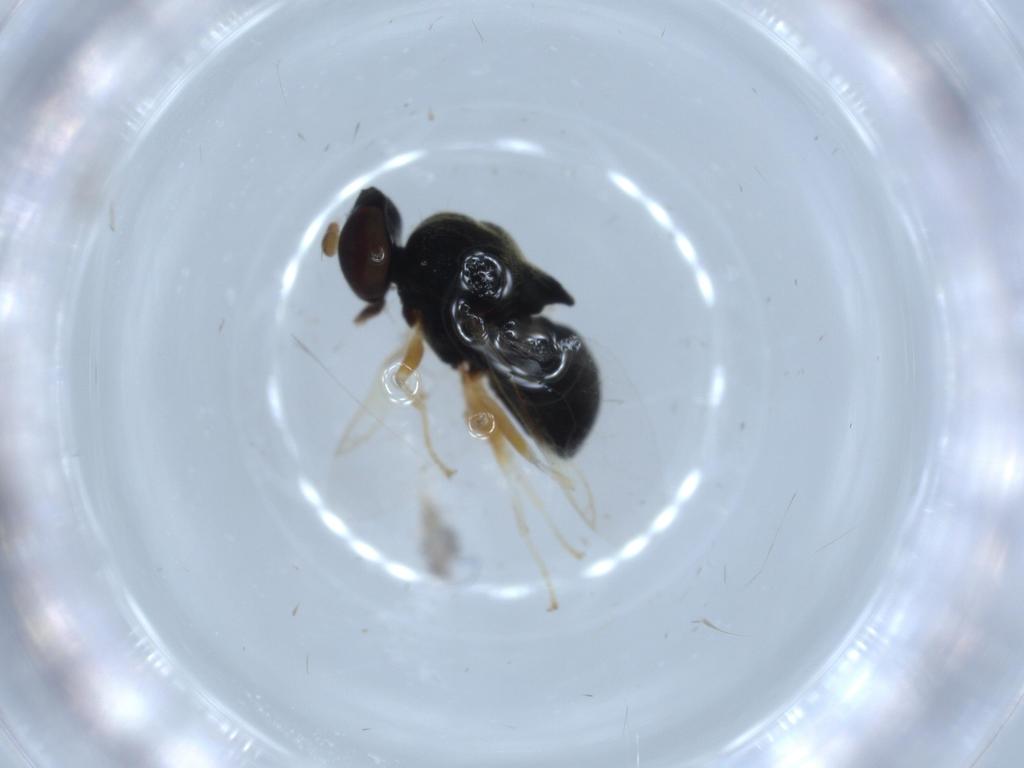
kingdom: Animalia
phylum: Arthropoda
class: Insecta
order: Diptera
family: Stratiomyidae
